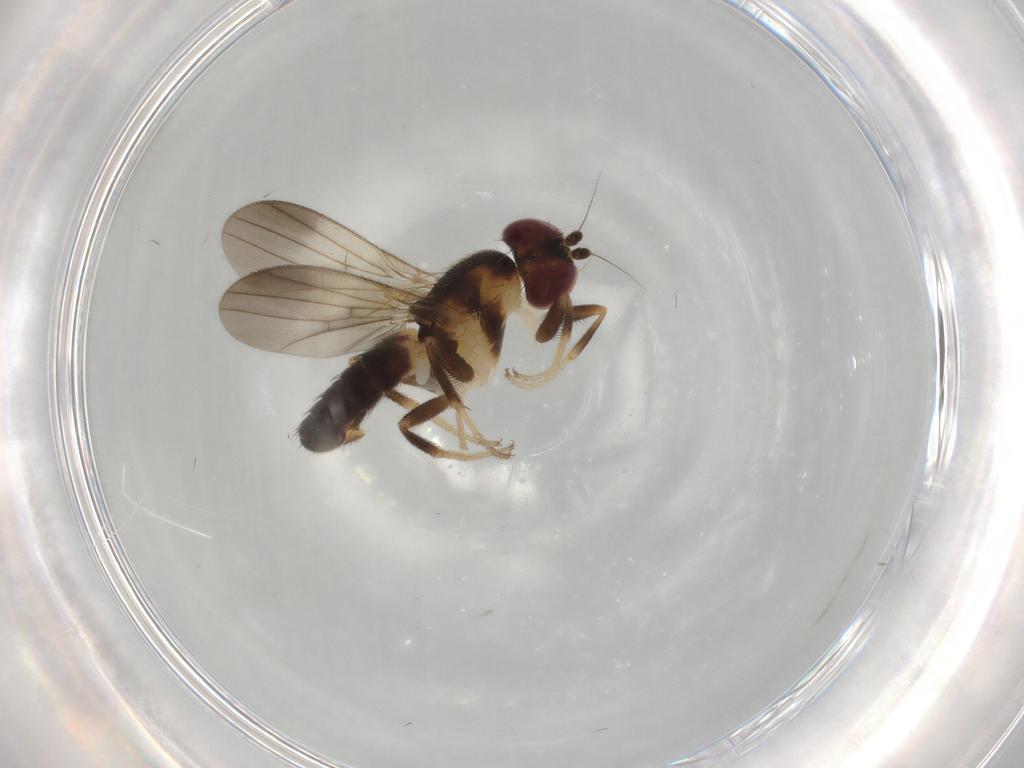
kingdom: Animalia
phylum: Arthropoda
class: Insecta
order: Diptera
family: Clusiidae
